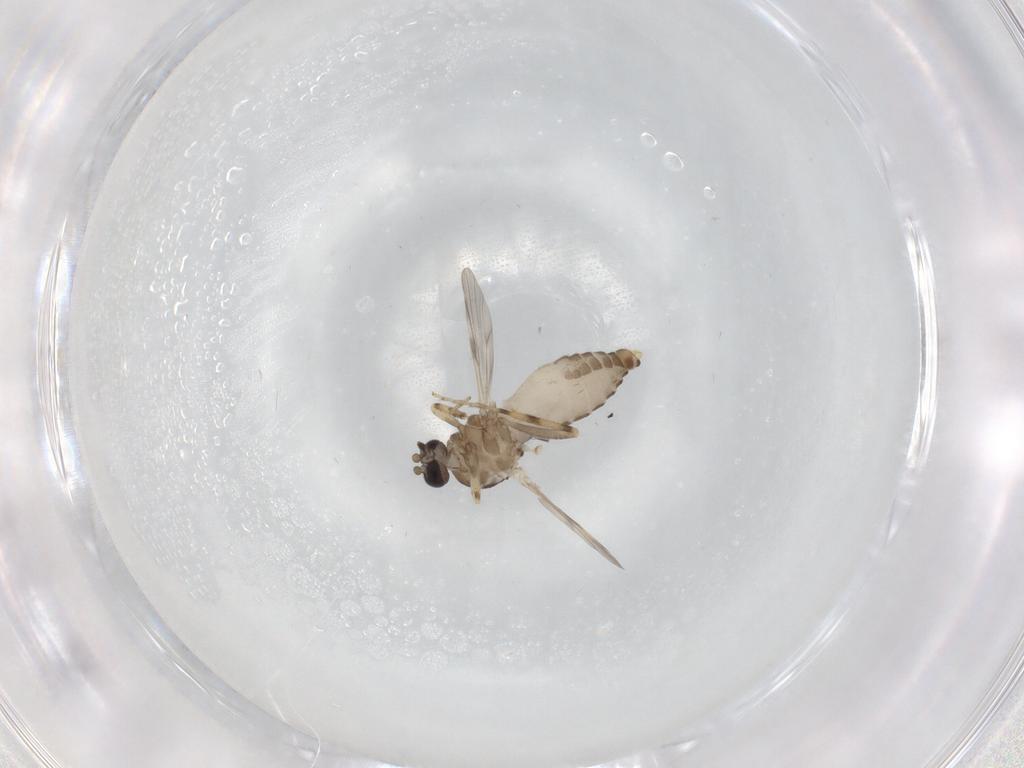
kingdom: Animalia
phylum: Arthropoda
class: Insecta
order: Diptera
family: Ceratopogonidae
